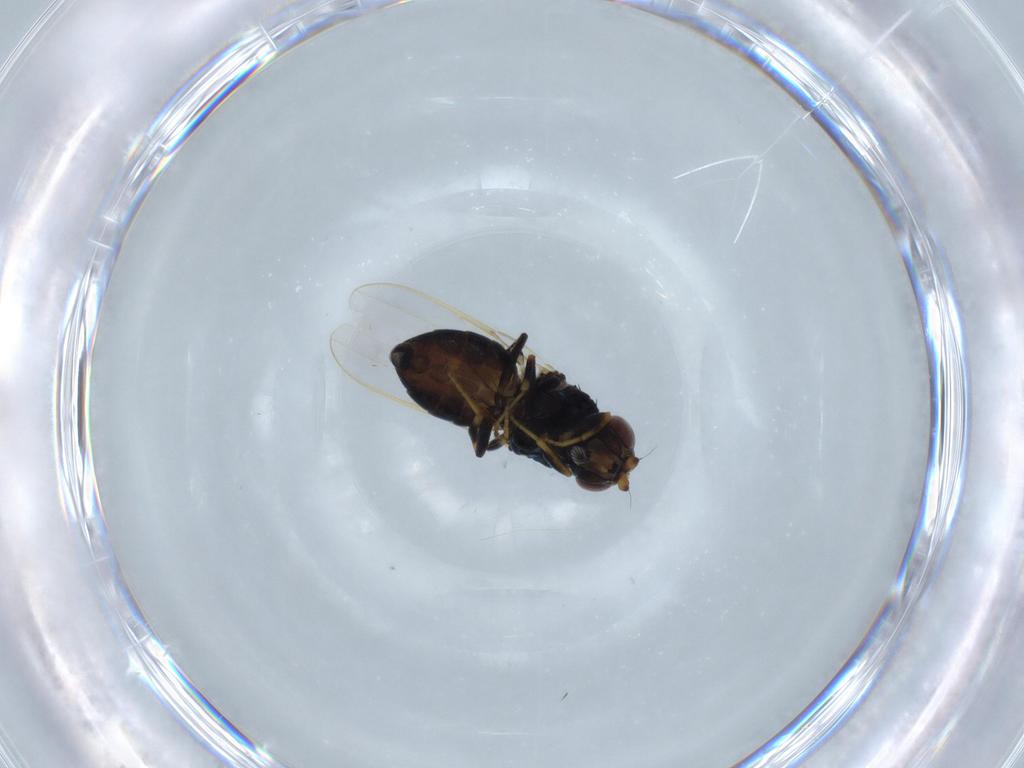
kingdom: Animalia
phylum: Arthropoda
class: Insecta
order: Diptera
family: Chloropidae
